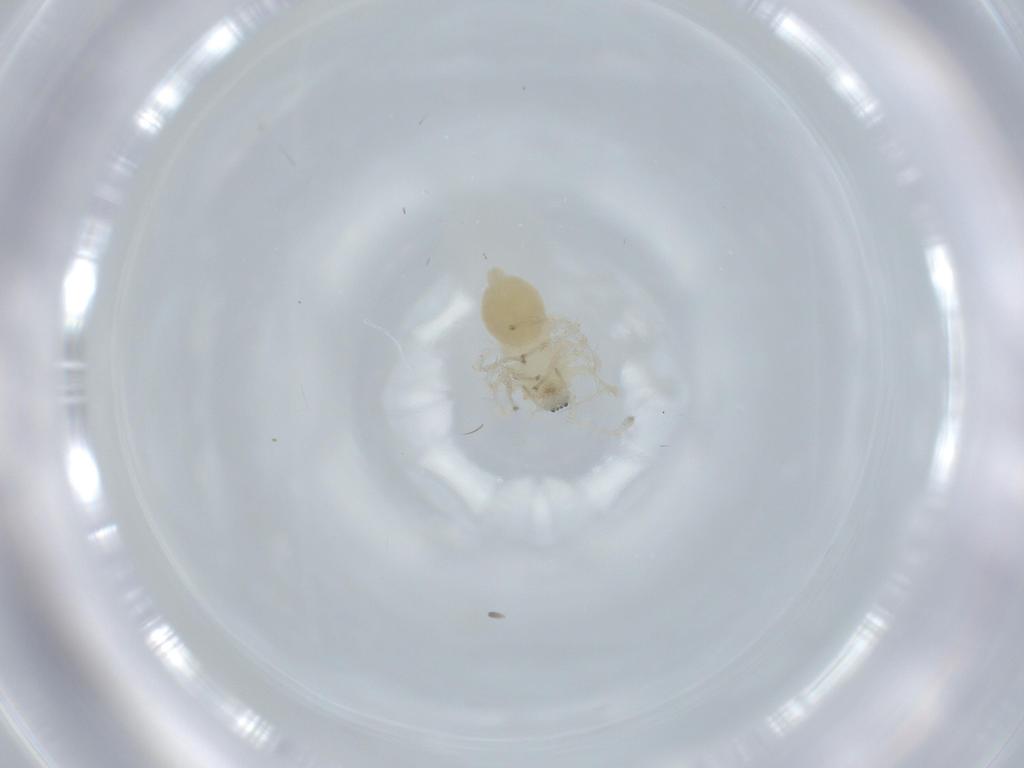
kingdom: Animalia
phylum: Arthropoda
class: Arachnida
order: Araneae
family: Anyphaenidae
